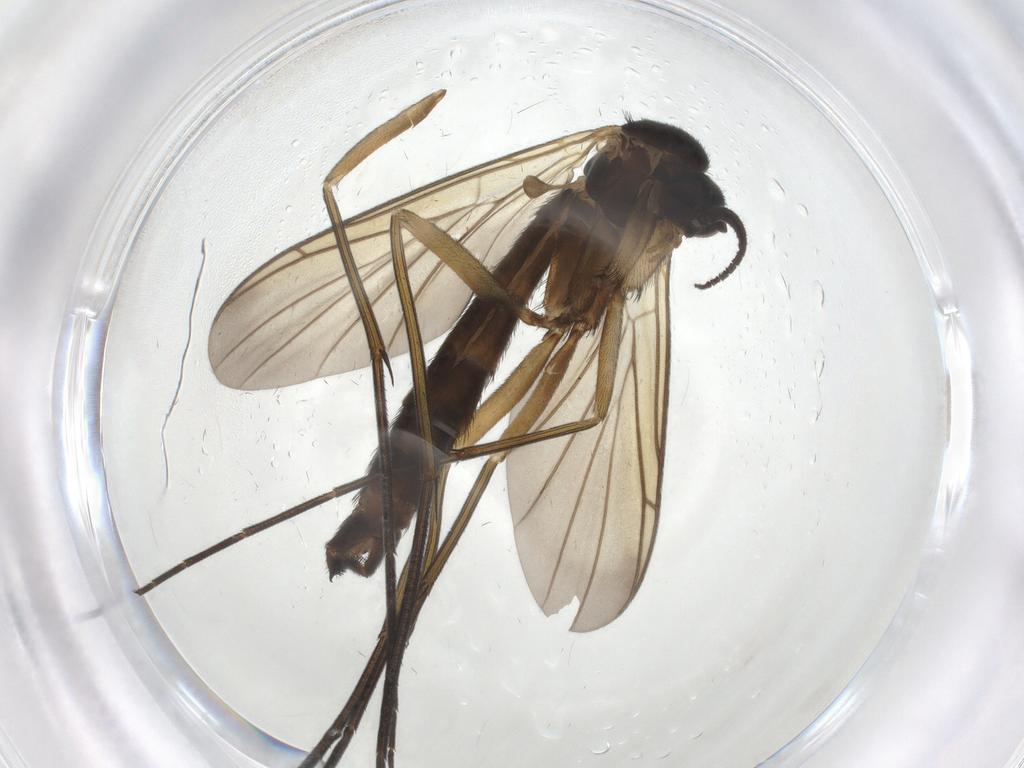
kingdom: Animalia
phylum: Arthropoda
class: Insecta
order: Diptera
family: Keroplatidae
